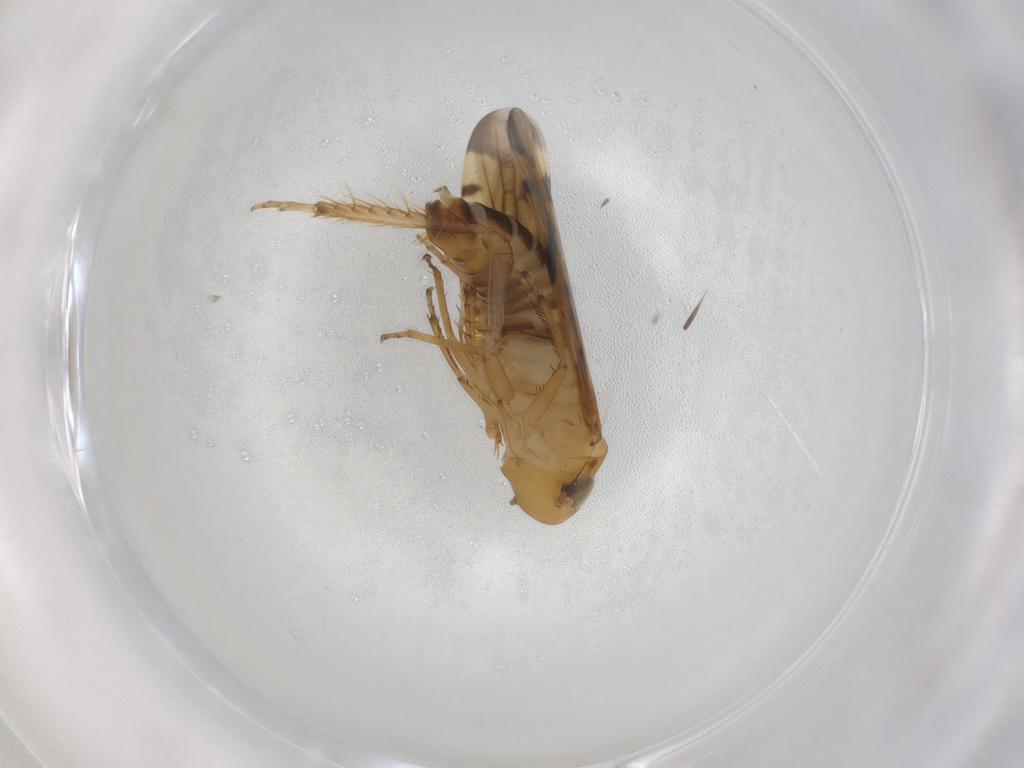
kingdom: Animalia
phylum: Arthropoda
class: Insecta
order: Hemiptera
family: Cicadellidae
